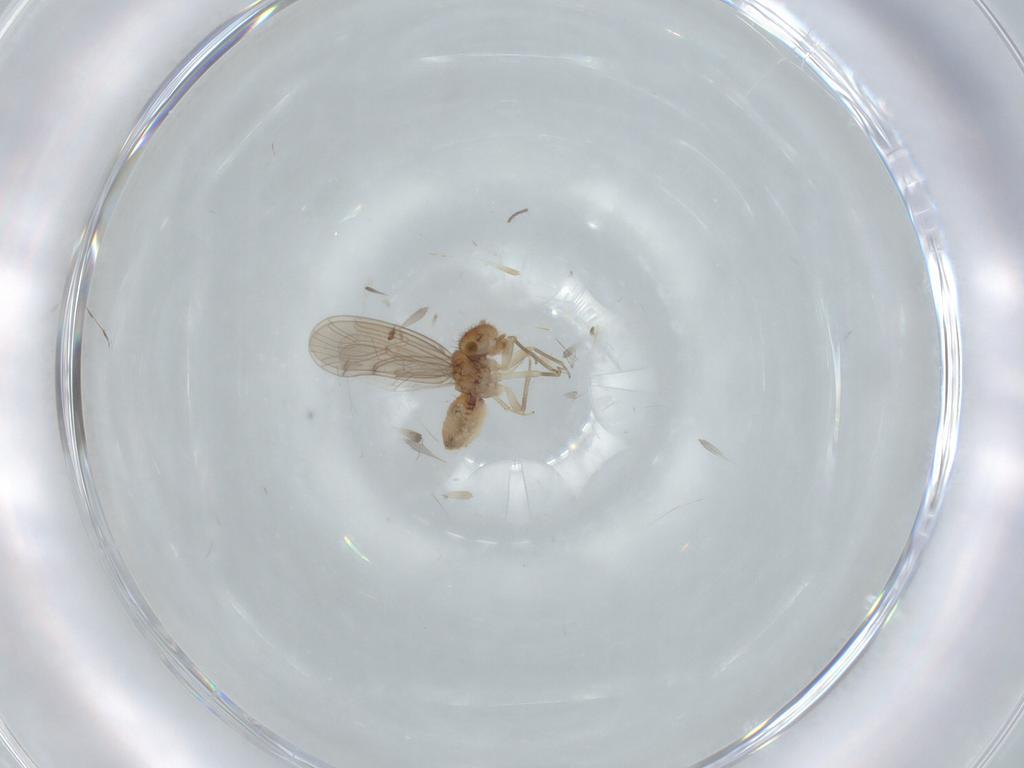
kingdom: Animalia
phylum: Arthropoda
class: Insecta
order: Psocodea
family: Ectopsocidae
